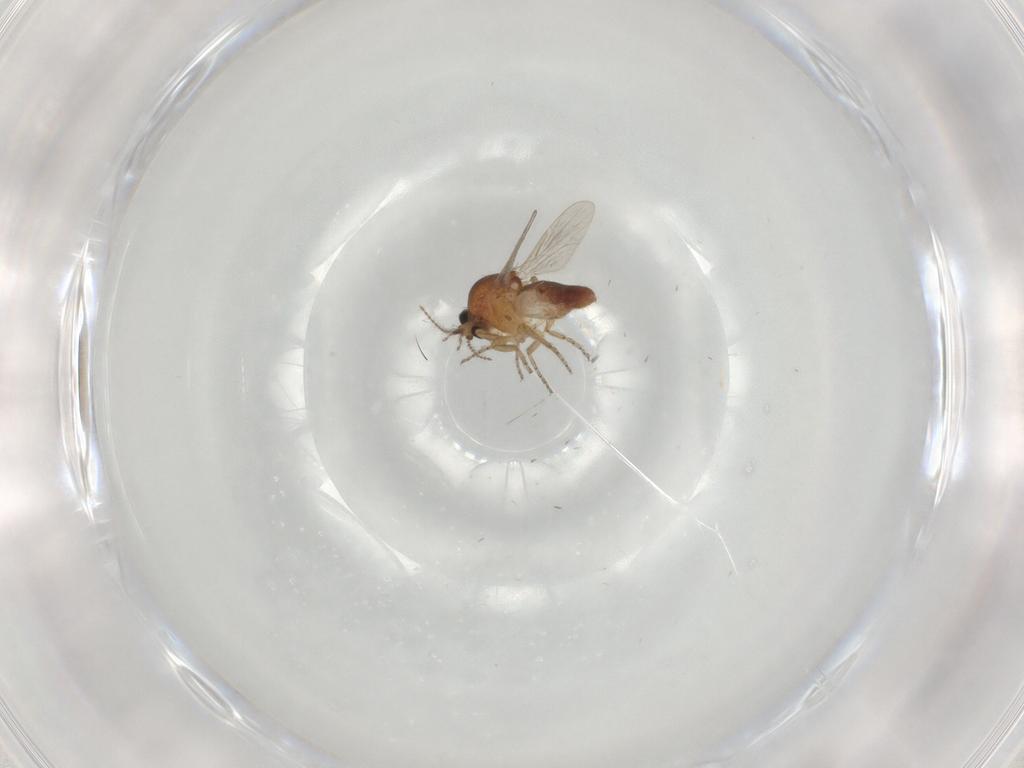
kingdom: Animalia
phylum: Arthropoda
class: Insecta
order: Diptera
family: Ceratopogonidae
